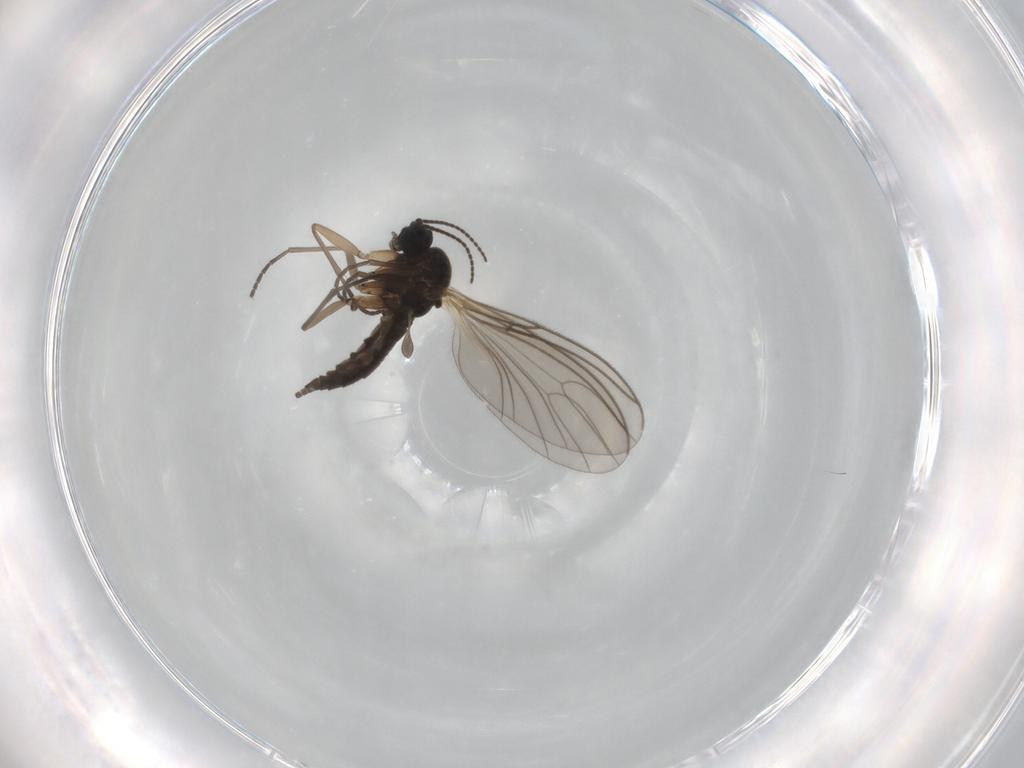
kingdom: Animalia
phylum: Arthropoda
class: Insecta
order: Diptera
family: Sciaridae
